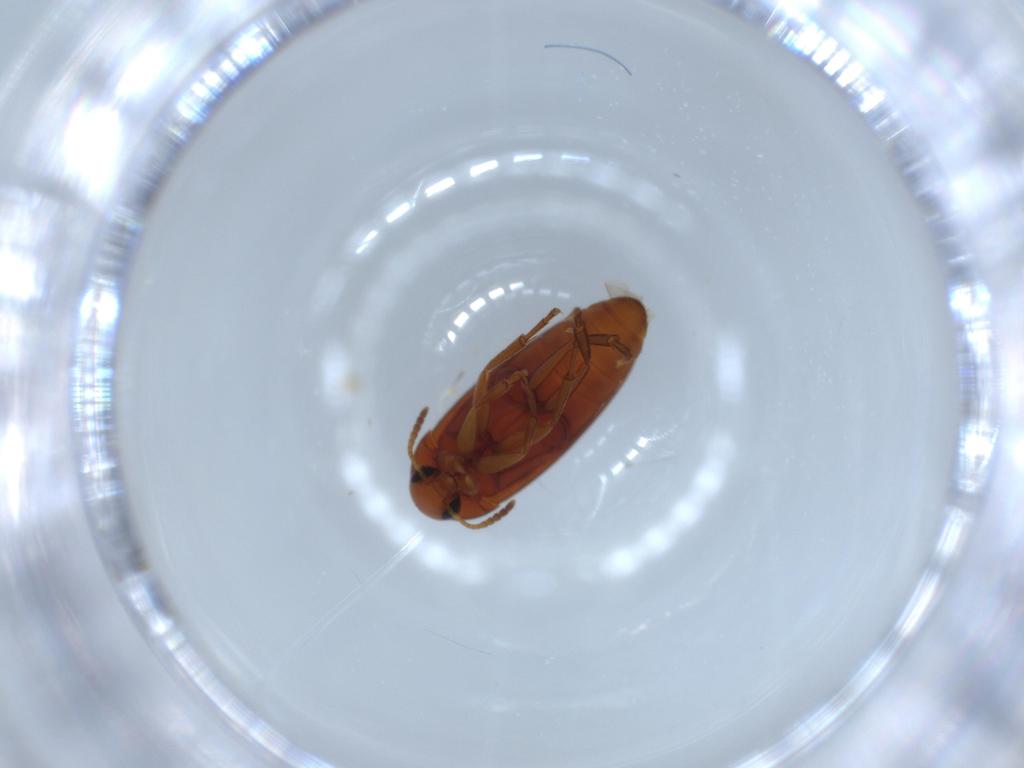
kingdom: Animalia
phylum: Arthropoda
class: Insecta
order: Coleoptera
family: Scraptiidae
